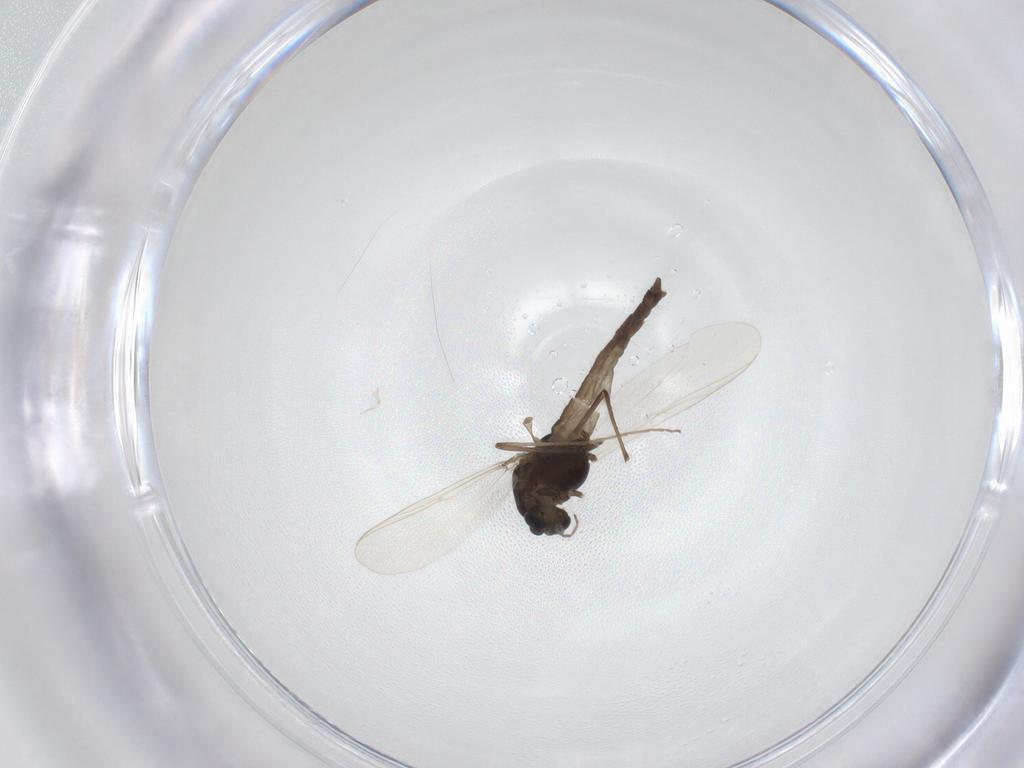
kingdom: Animalia
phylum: Arthropoda
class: Insecta
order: Diptera
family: Chironomidae
